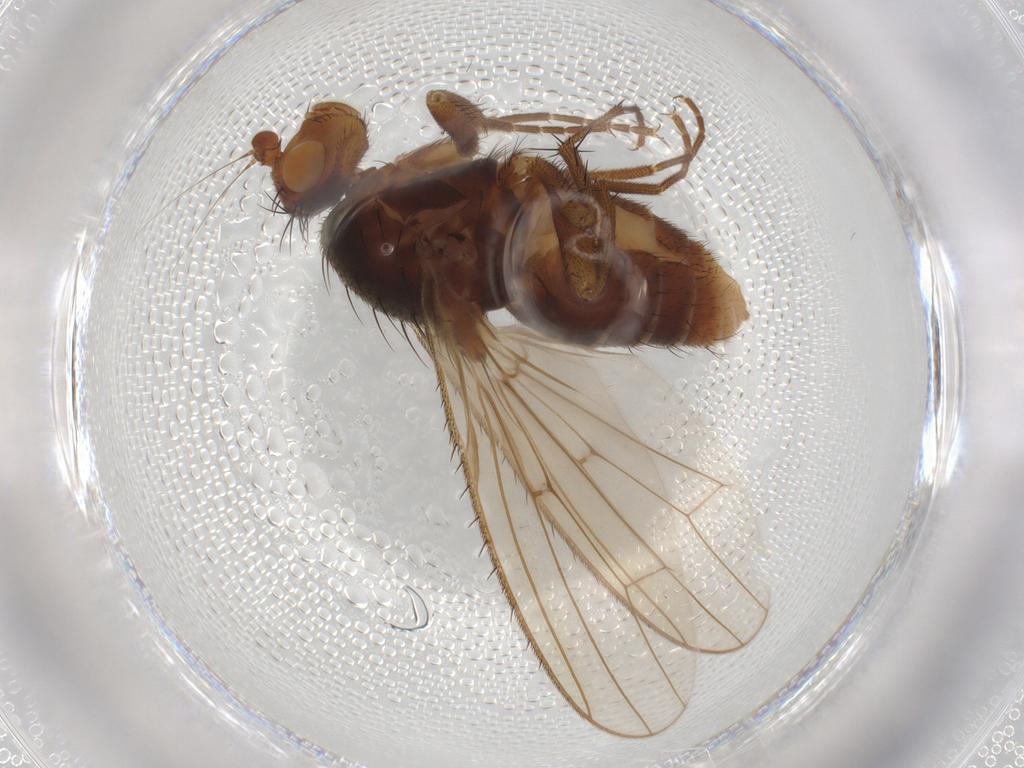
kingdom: Animalia
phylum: Arthropoda
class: Insecta
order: Diptera
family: Heleomyzidae
